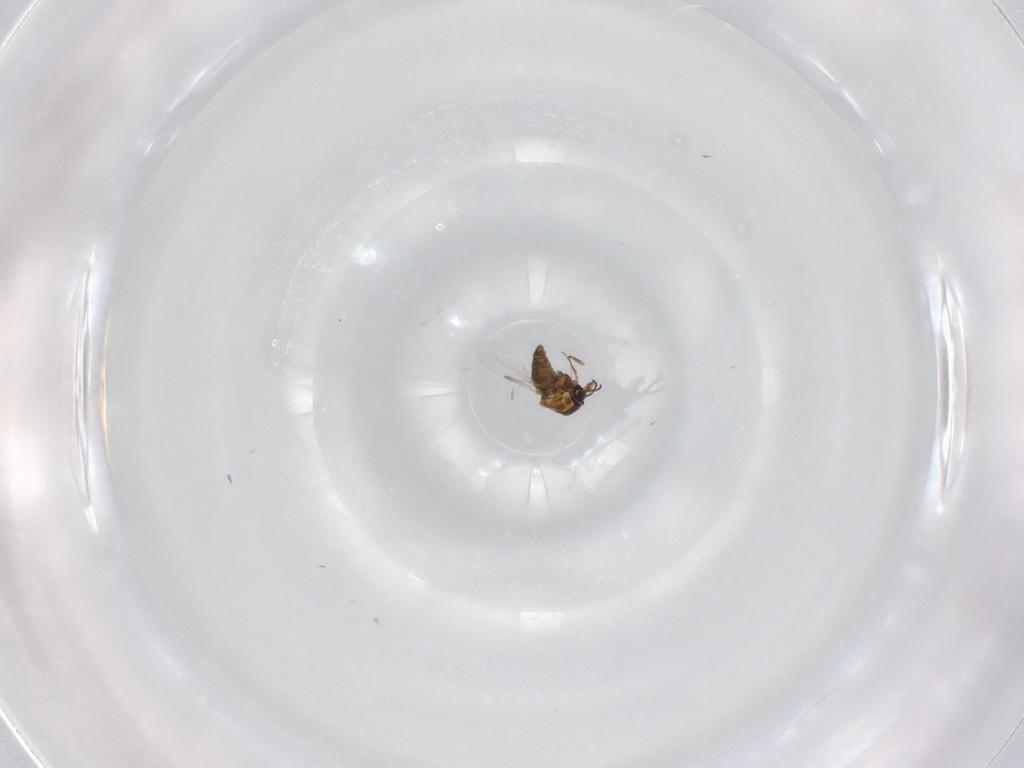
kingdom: Animalia
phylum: Arthropoda
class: Insecta
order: Diptera
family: Ceratopogonidae
